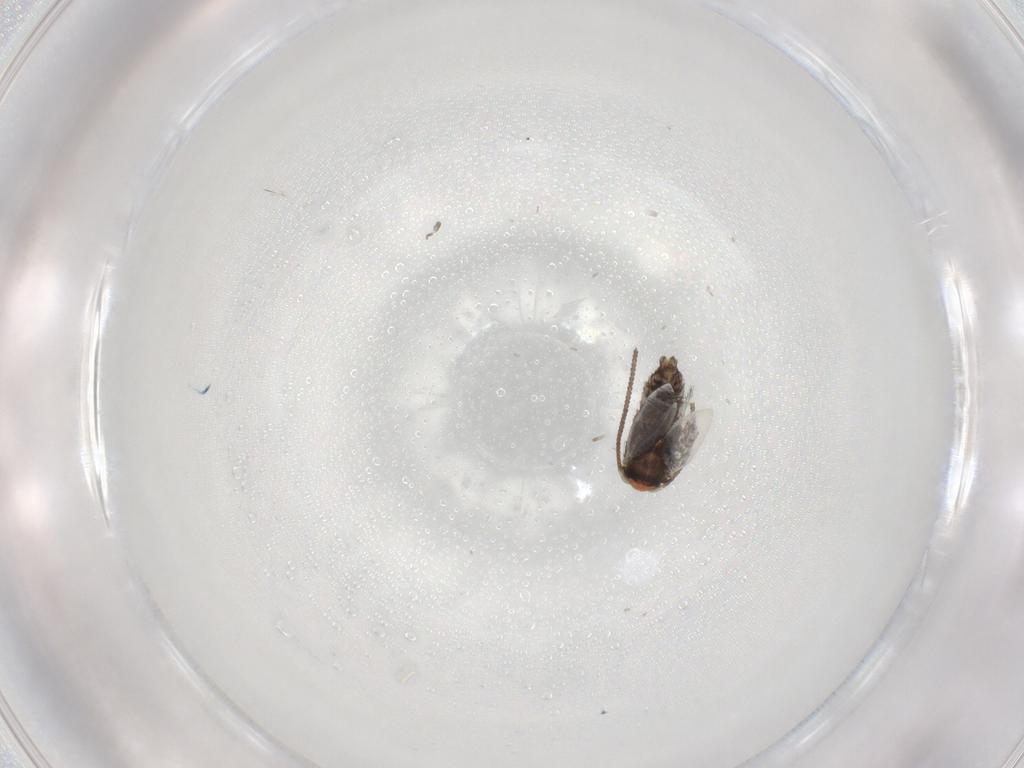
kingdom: Animalia
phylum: Arthropoda
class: Insecta
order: Lepidoptera
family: Nepticulidae
